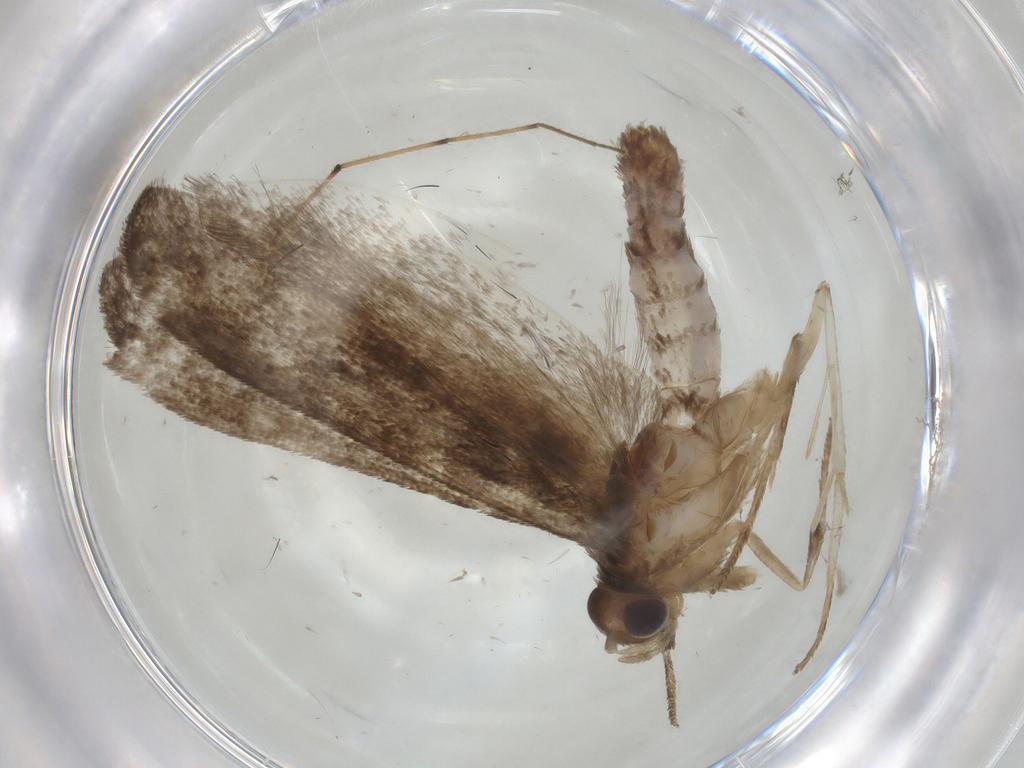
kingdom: Animalia
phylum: Arthropoda
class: Insecta
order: Lepidoptera
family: Praydidae
